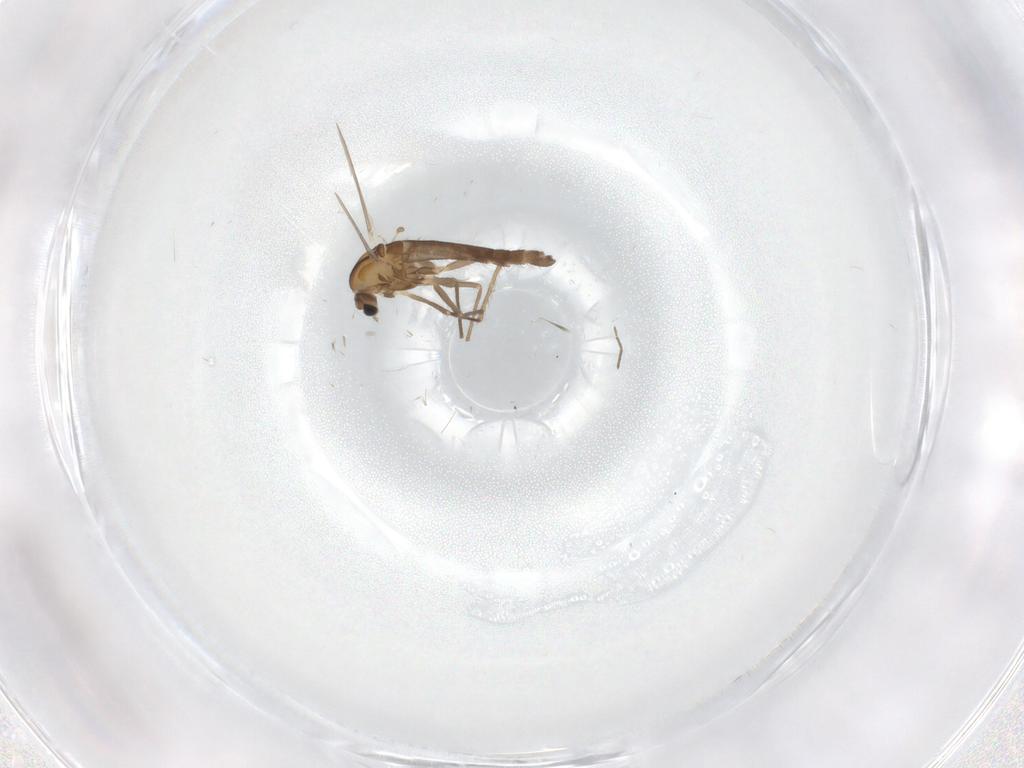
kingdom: Animalia
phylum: Arthropoda
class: Insecta
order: Diptera
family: Chironomidae
